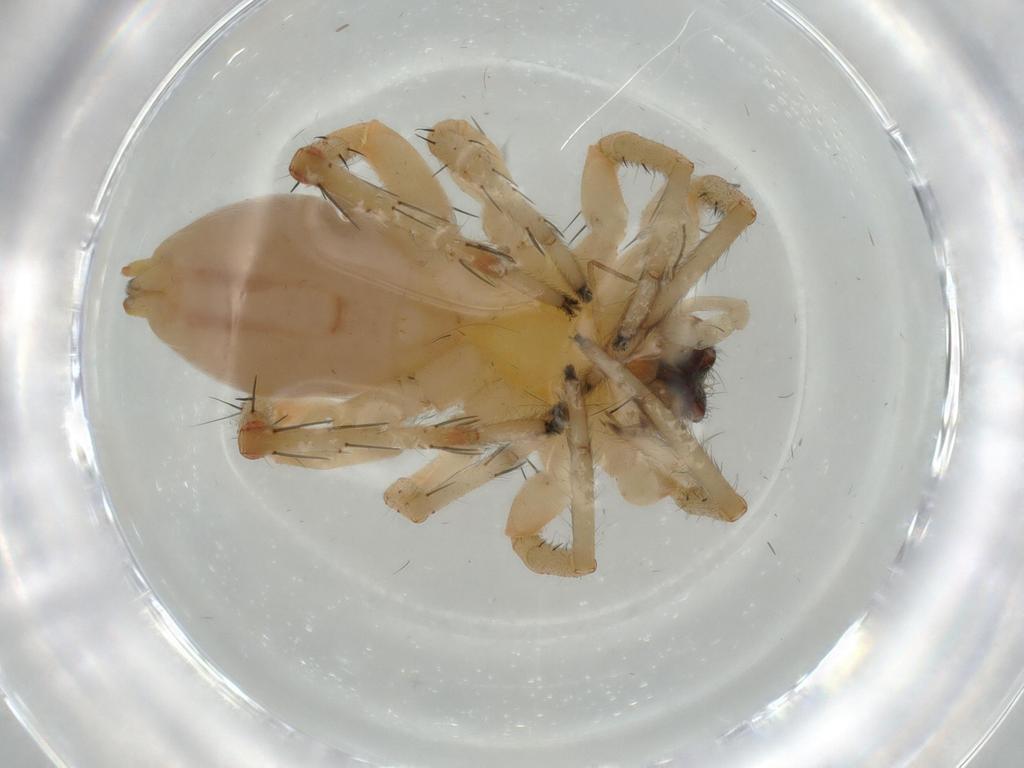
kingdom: Animalia
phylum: Arthropoda
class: Arachnida
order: Araneae
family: Anyphaenidae
